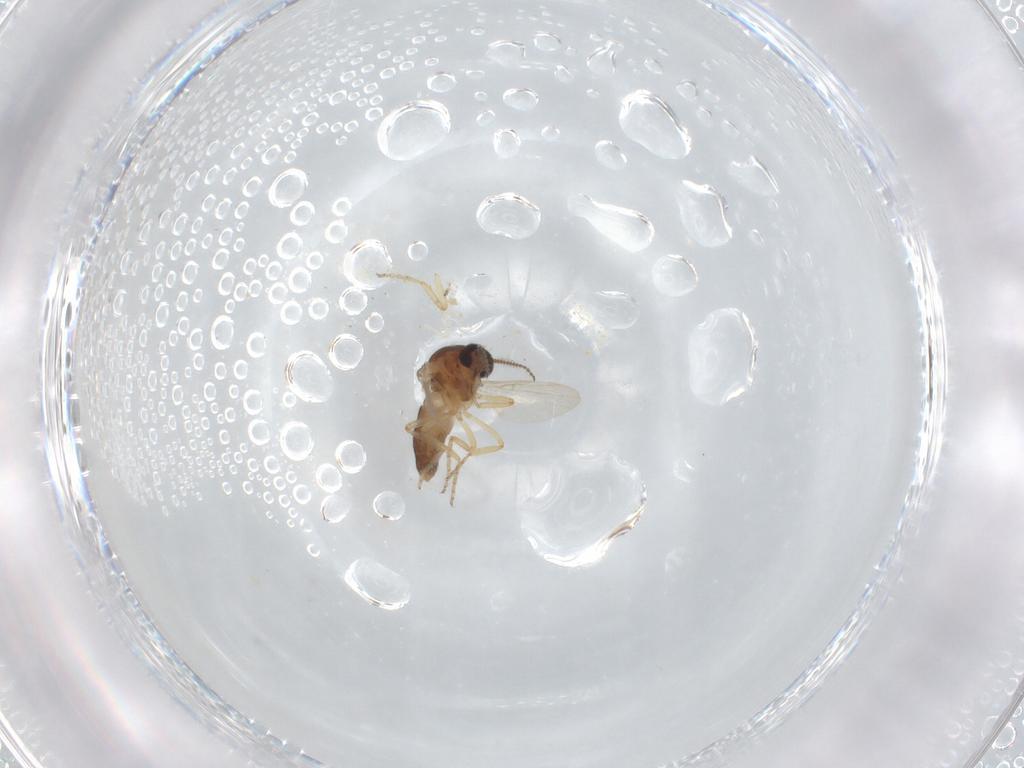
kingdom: Animalia
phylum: Arthropoda
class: Insecta
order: Diptera
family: Ceratopogonidae
